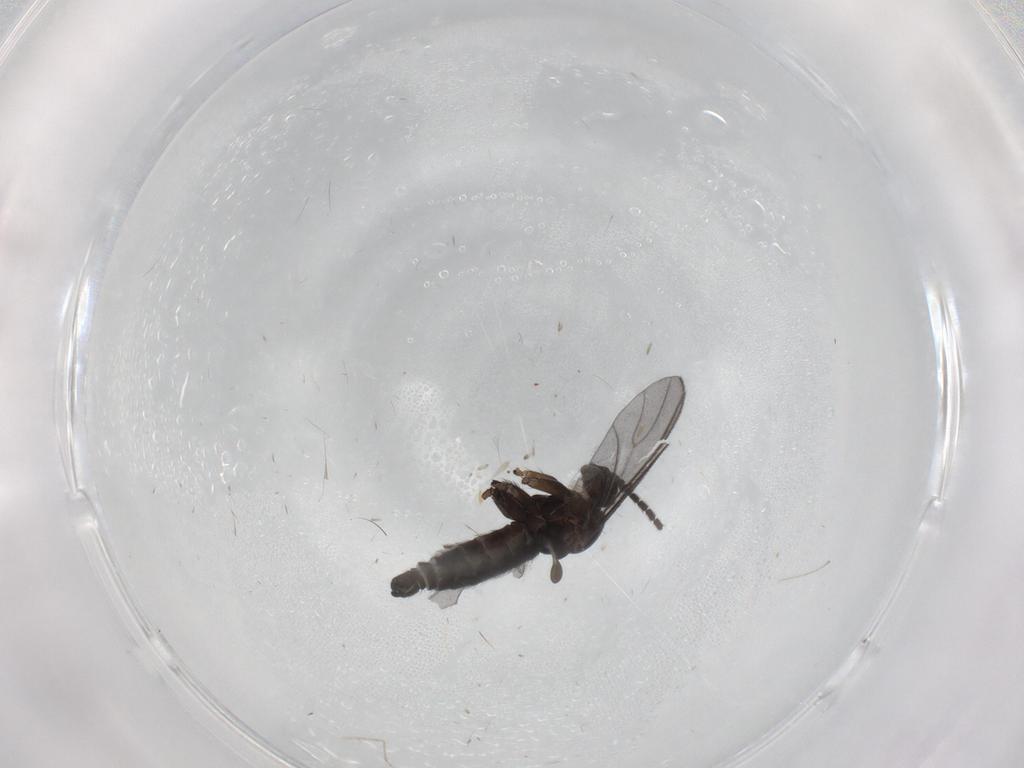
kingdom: Animalia
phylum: Arthropoda
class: Insecta
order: Diptera
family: Sciaridae
